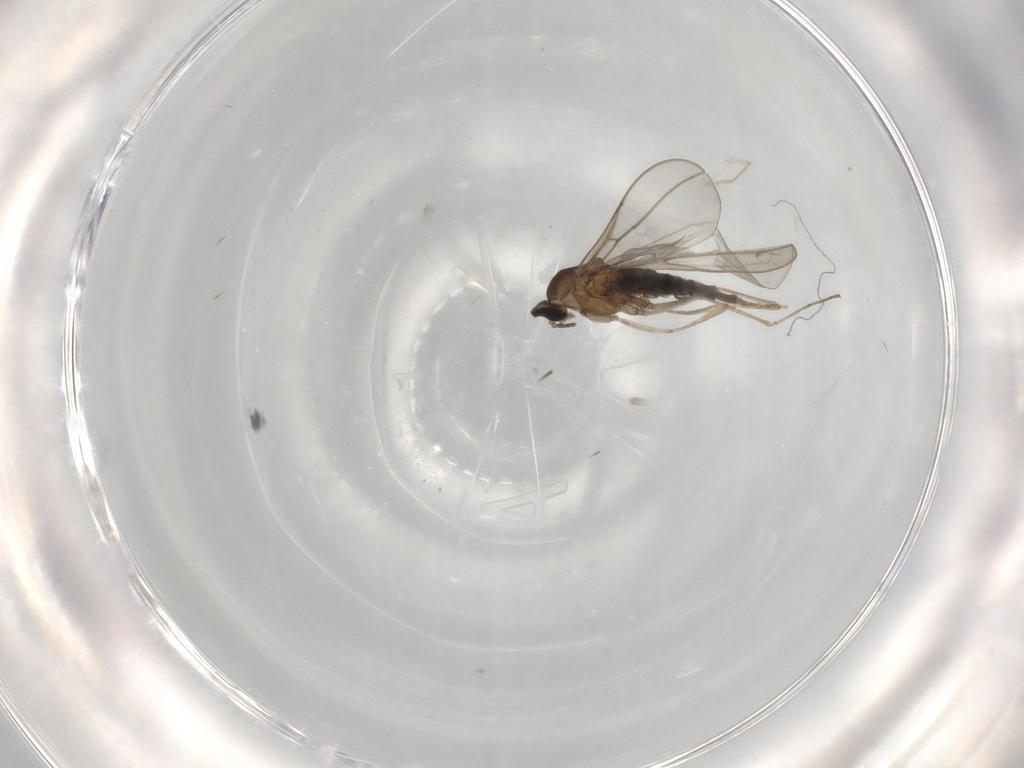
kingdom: Animalia
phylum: Arthropoda
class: Insecta
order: Diptera
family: Cecidomyiidae
